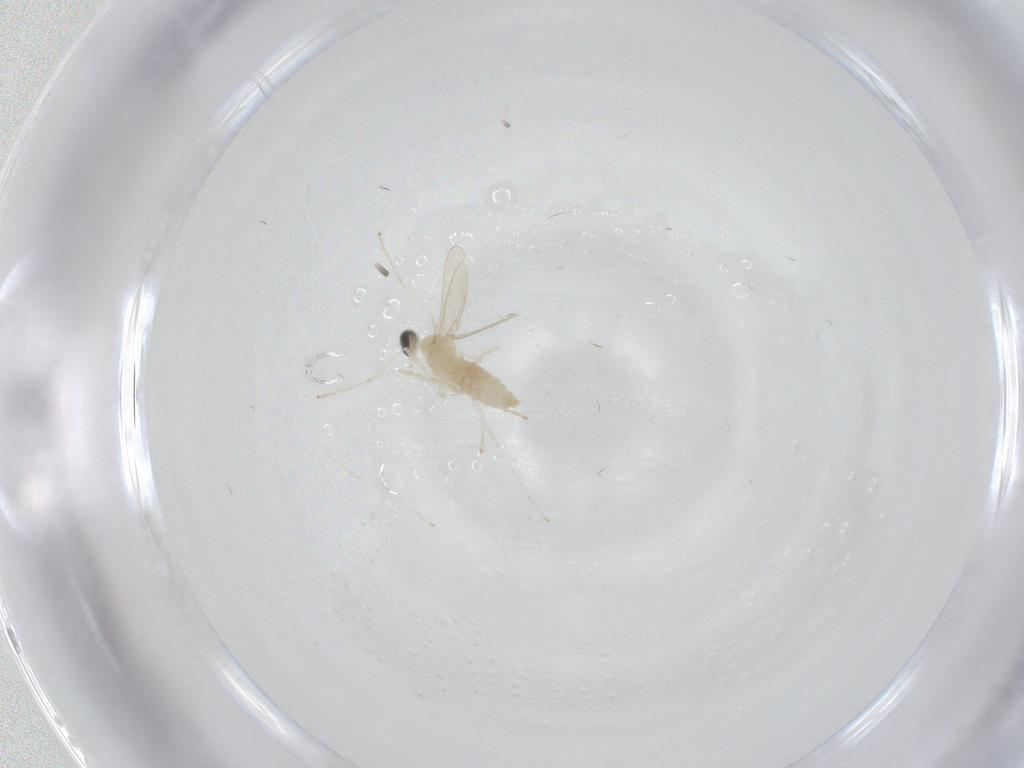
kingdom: Animalia
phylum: Arthropoda
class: Insecta
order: Diptera
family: Cecidomyiidae
